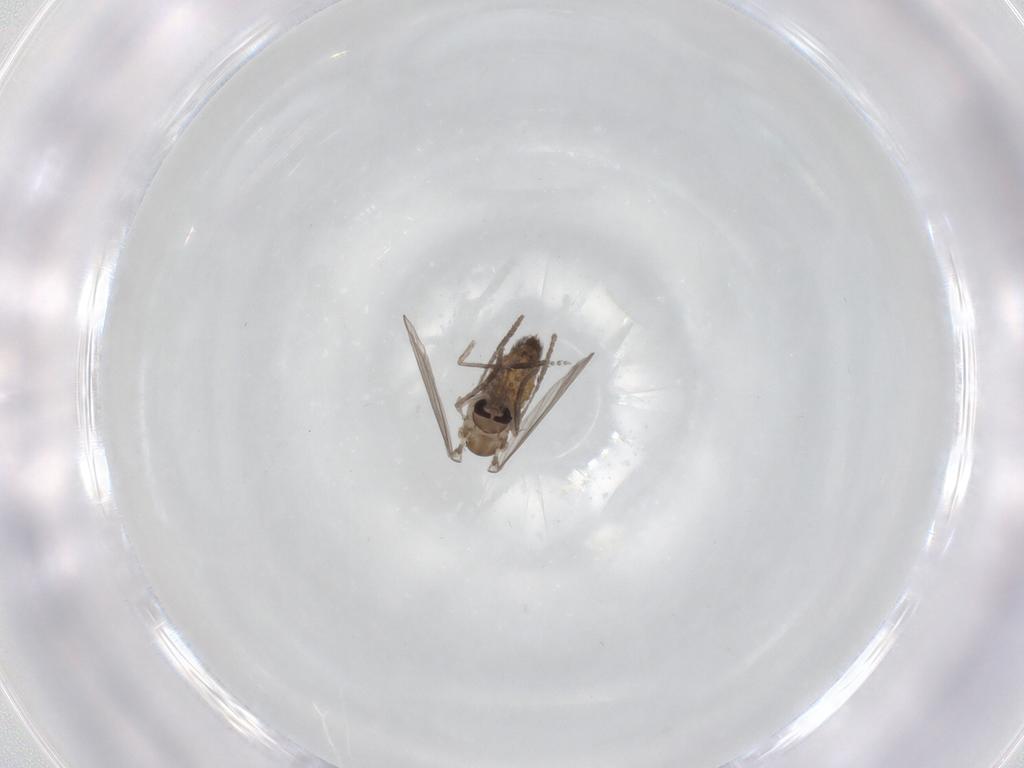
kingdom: Animalia
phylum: Arthropoda
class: Insecta
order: Diptera
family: Psychodidae
